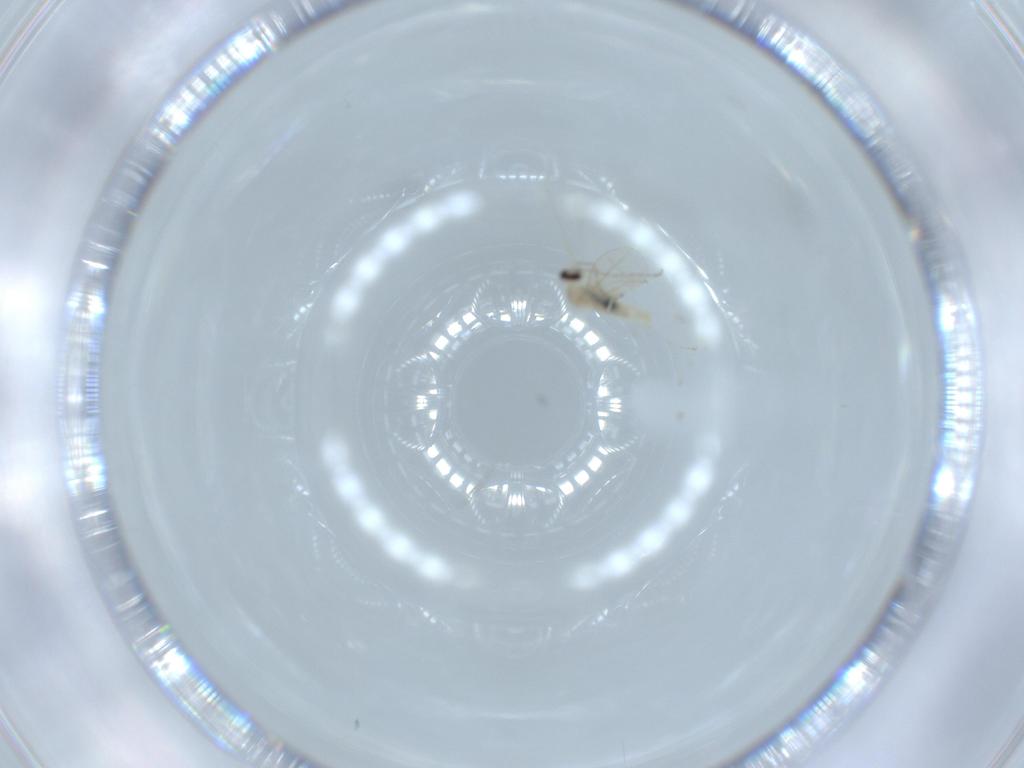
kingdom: Animalia
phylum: Arthropoda
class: Insecta
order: Diptera
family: Cecidomyiidae
